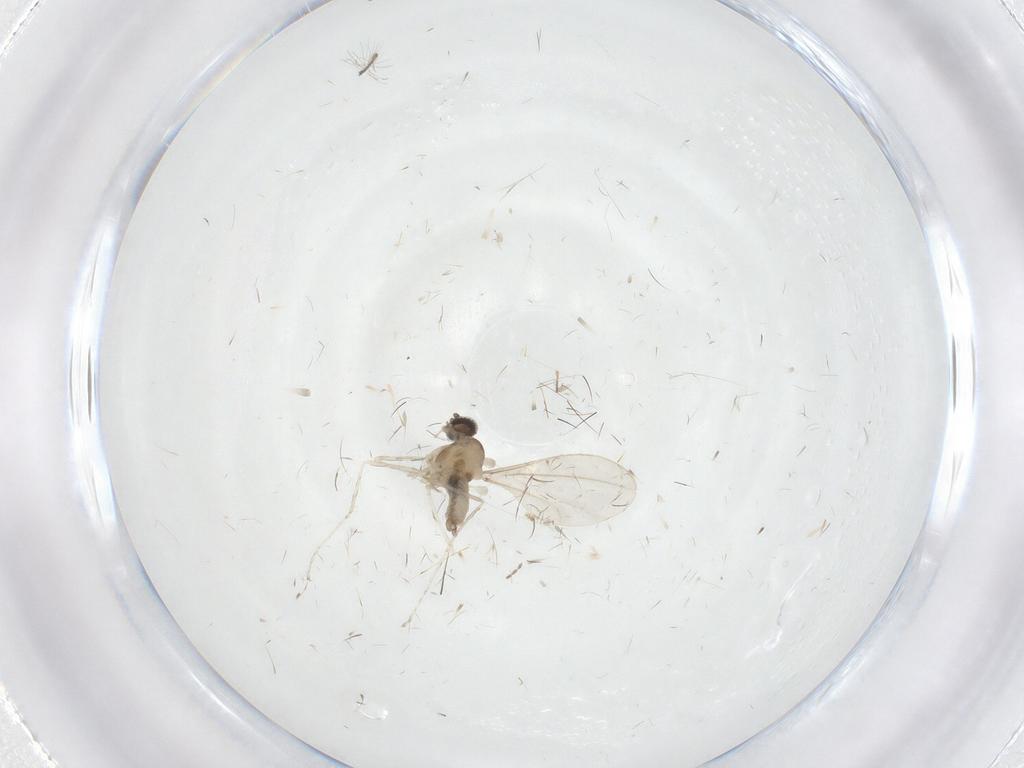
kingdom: Animalia
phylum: Arthropoda
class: Insecta
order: Diptera
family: Cecidomyiidae
